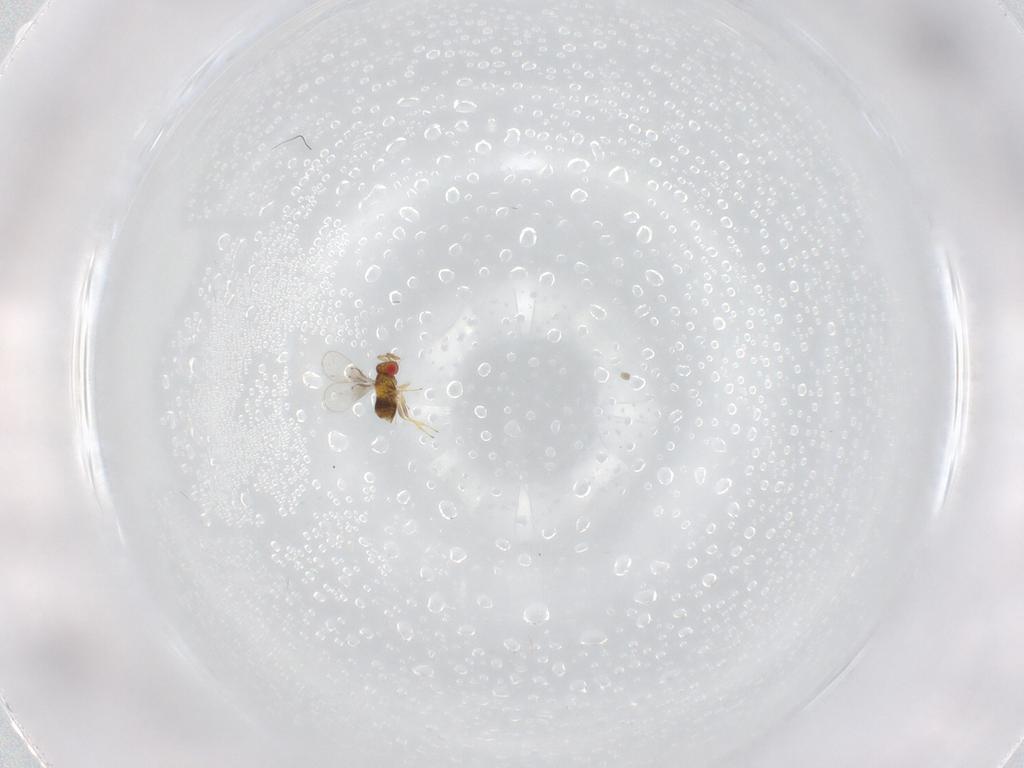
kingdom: Animalia
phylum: Arthropoda
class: Insecta
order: Hymenoptera
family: Trichogrammatidae
